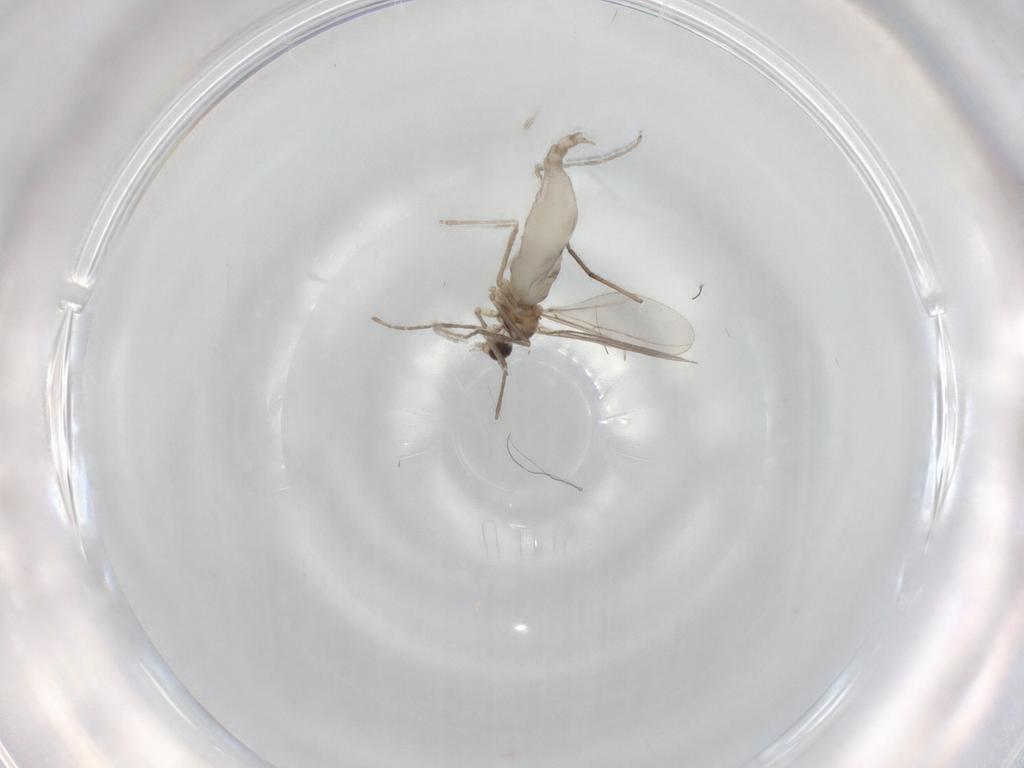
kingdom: Animalia
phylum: Arthropoda
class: Insecta
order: Diptera
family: Cecidomyiidae
